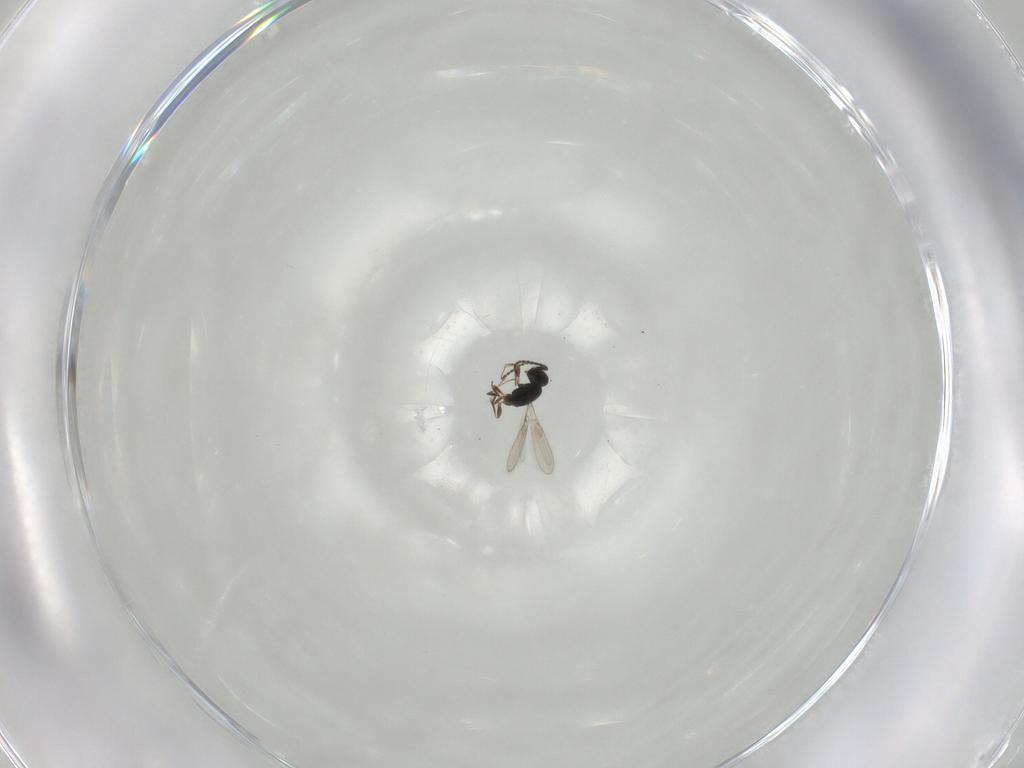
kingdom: Animalia
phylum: Arthropoda
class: Insecta
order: Hymenoptera
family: Scelionidae
